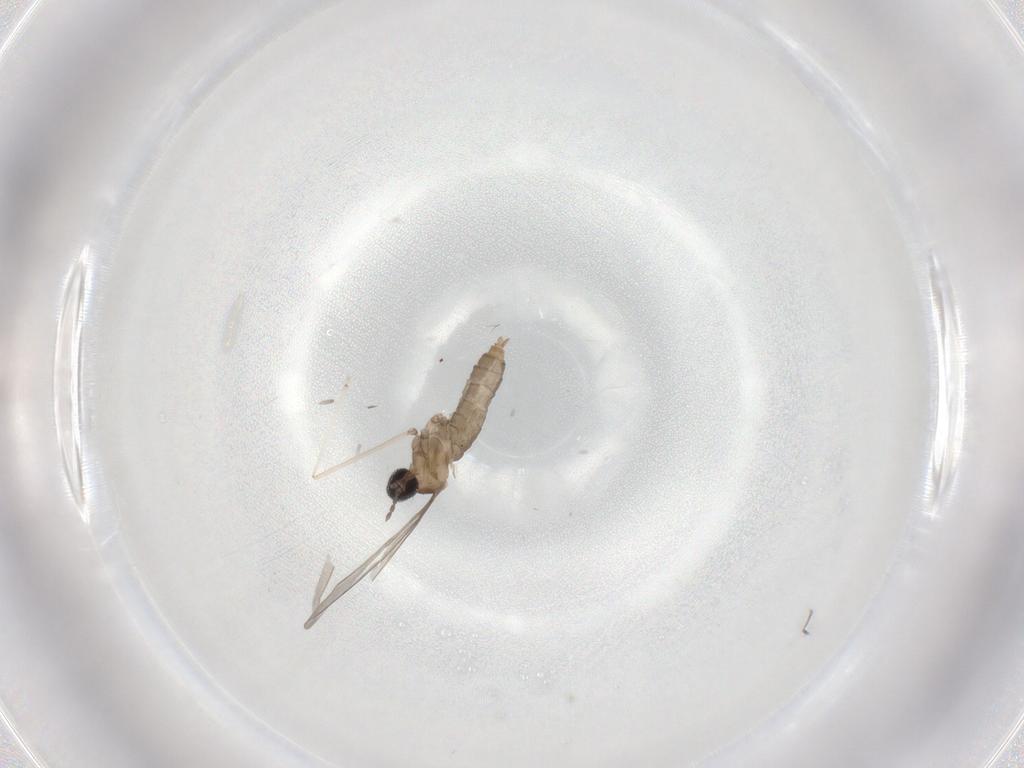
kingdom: Animalia
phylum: Arthropoda
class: Insecta
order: Diptera
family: Cecidomyiidae
